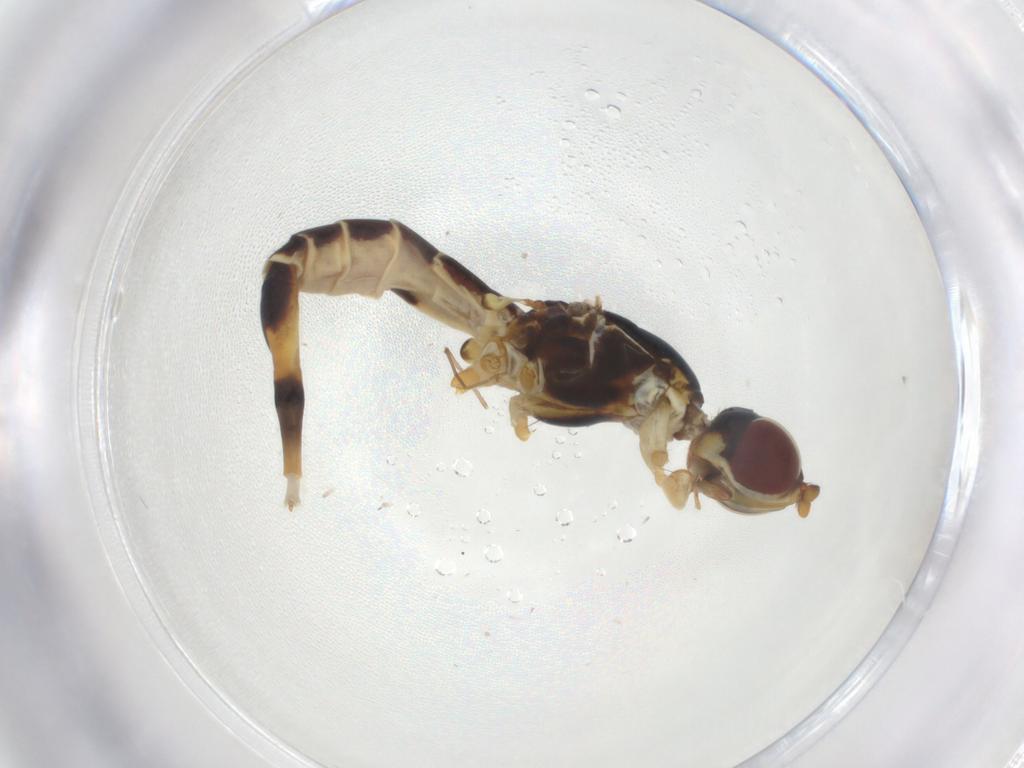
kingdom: Animalia
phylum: Arthropoda
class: Insecta
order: Diptera
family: Micropezidae
